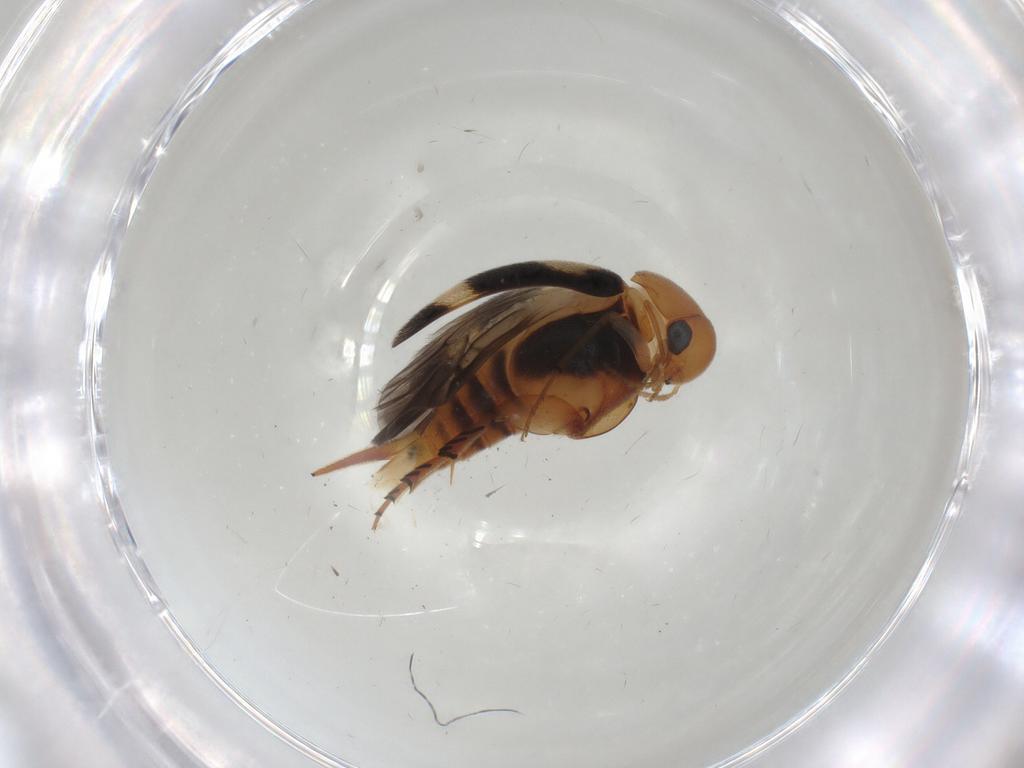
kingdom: Animalia
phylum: Arthropoda
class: Insecta
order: Coleoptera
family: Mordellidae
